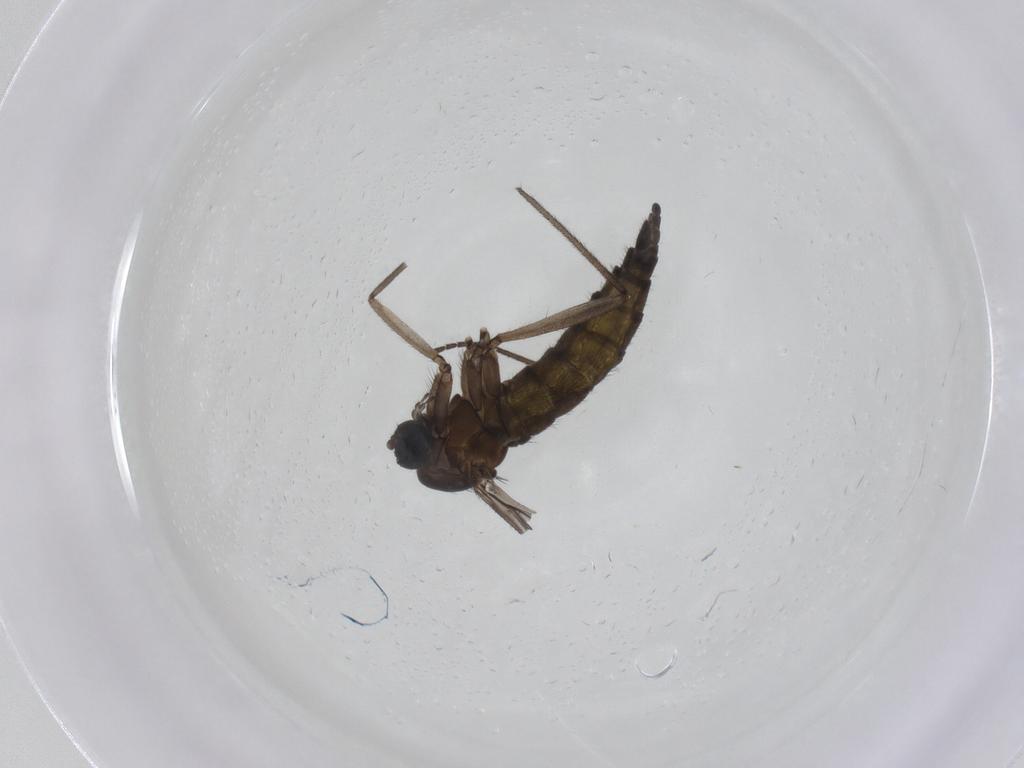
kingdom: Animalia
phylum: Arthropoda
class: Insecta
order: Diptera
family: Sciaridae
